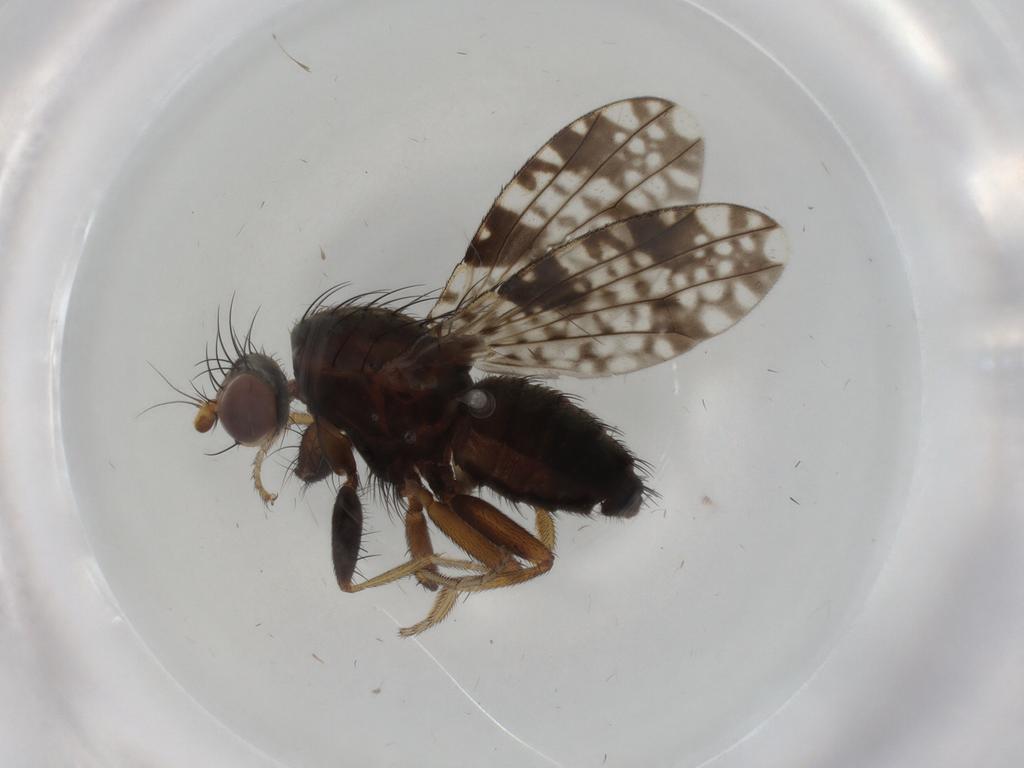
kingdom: Animalia
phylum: Arthropoda
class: Insecta
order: Diptera
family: Tephritidae
